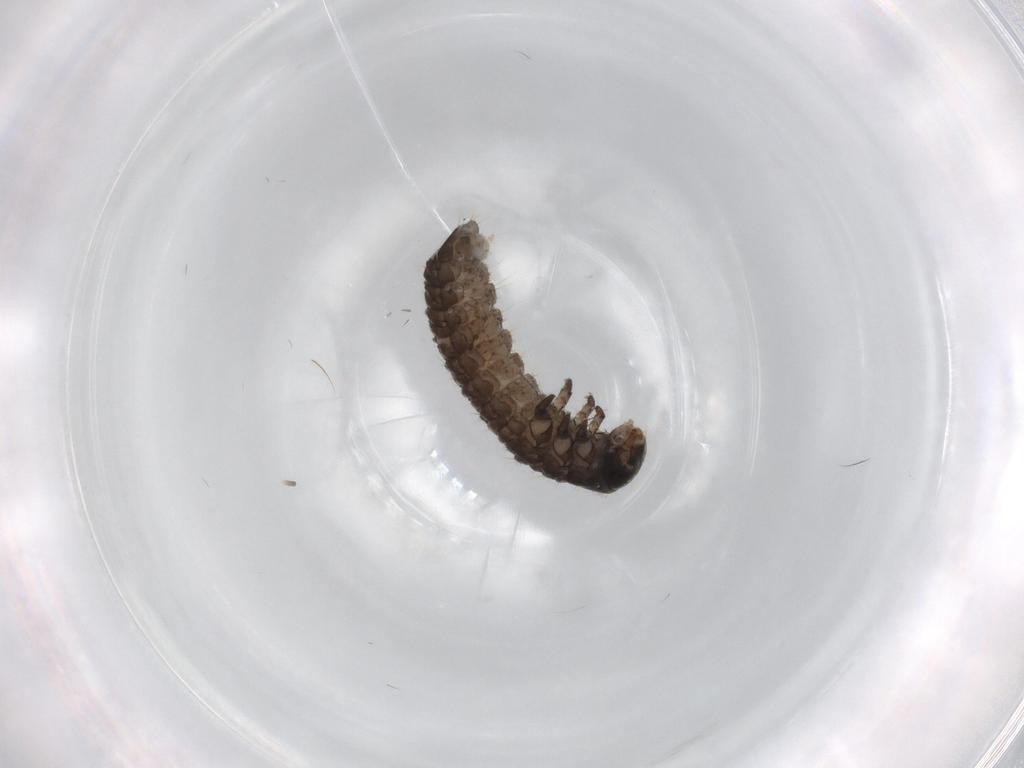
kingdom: Animalia
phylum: Arthropoda
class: Insecta
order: Coleoptera
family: Chrysomelidae
